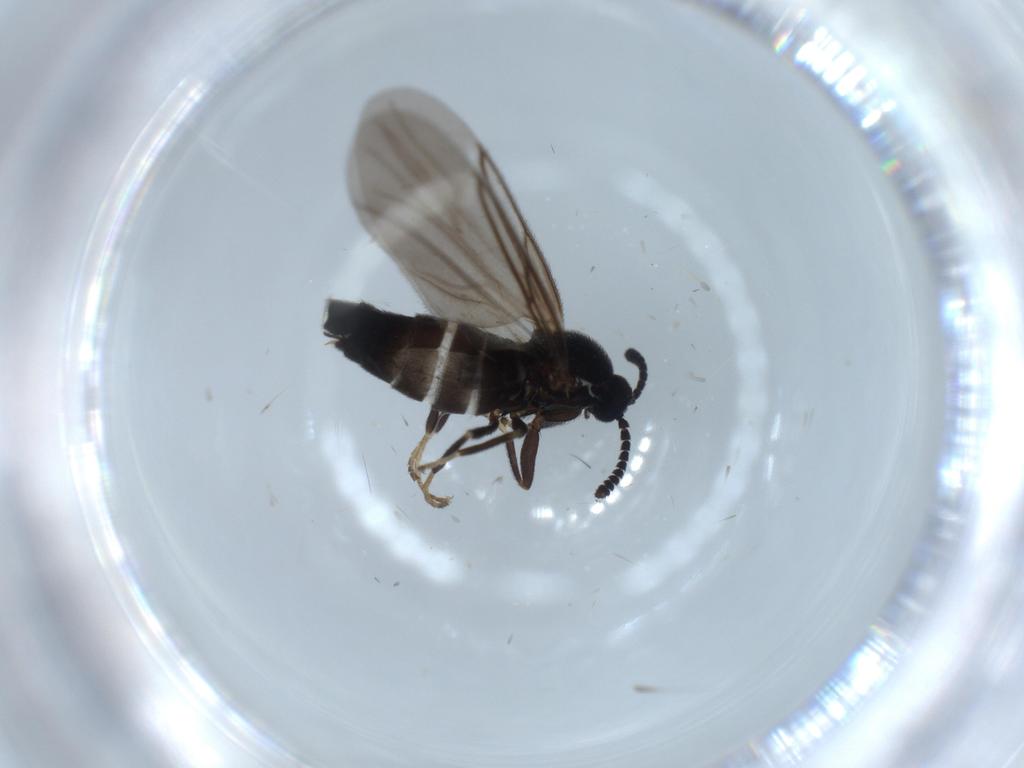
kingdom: Animalia
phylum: Arthropoda
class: Insecta
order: Diptera
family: Scatopsidae
